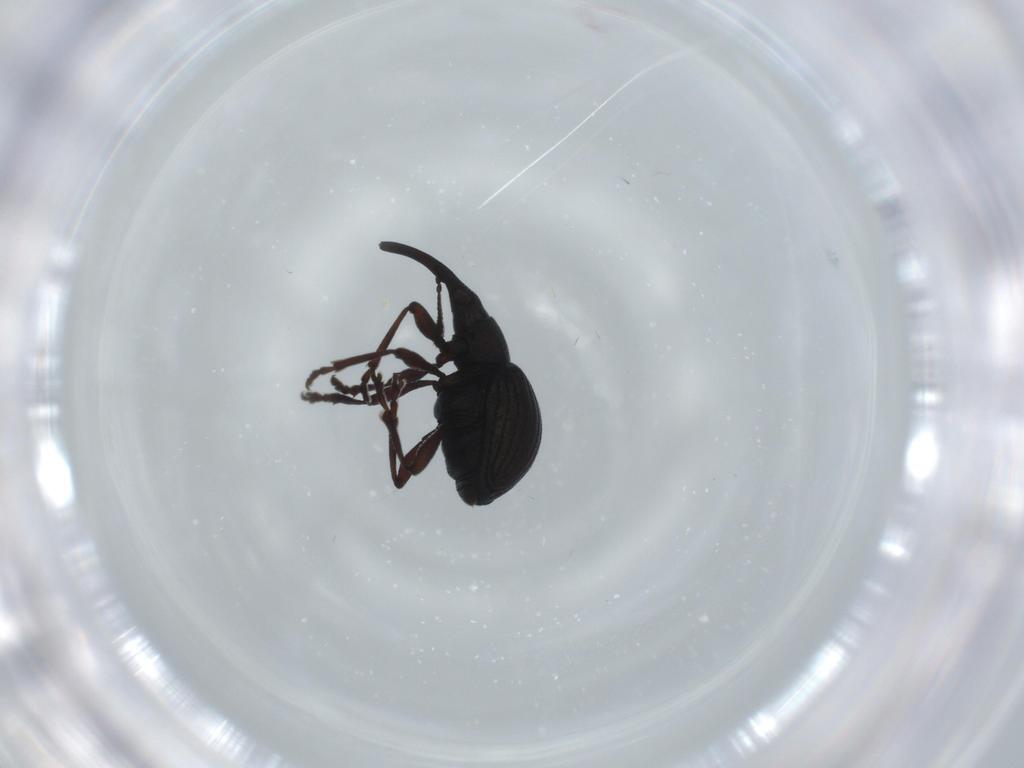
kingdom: Animalia
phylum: Arthropoda
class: Insecta
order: Coleoptera
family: Brentidae
